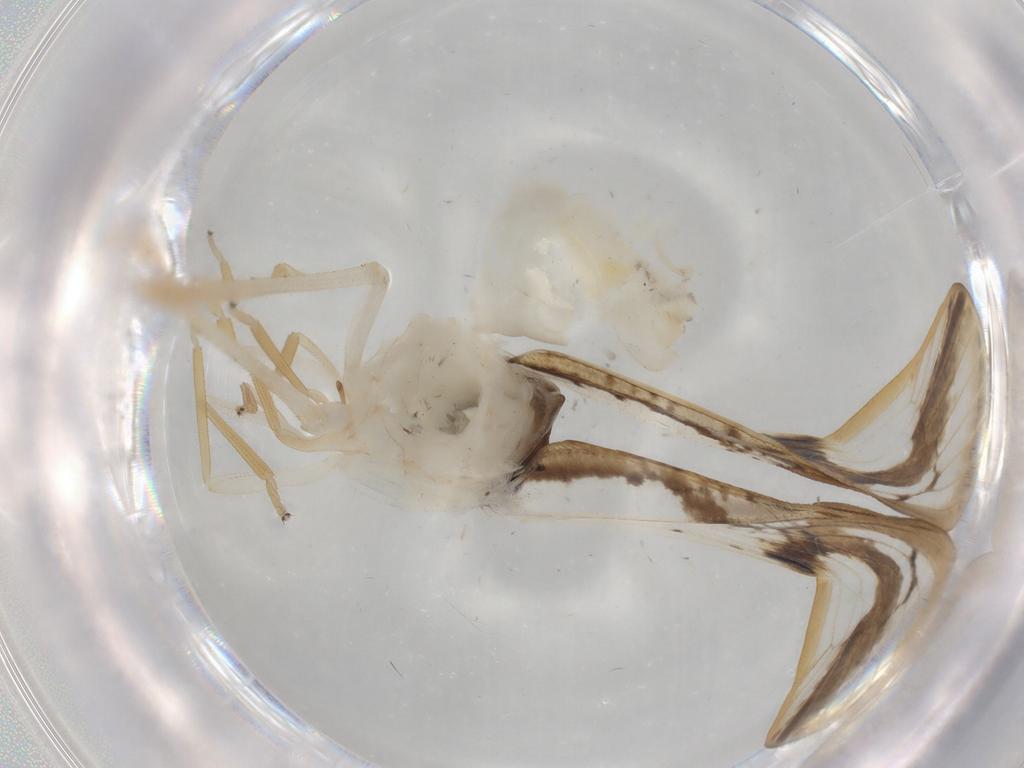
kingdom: Animalia
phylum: Arthropoda
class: Insecta
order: Hemiptera
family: Cixiidae
